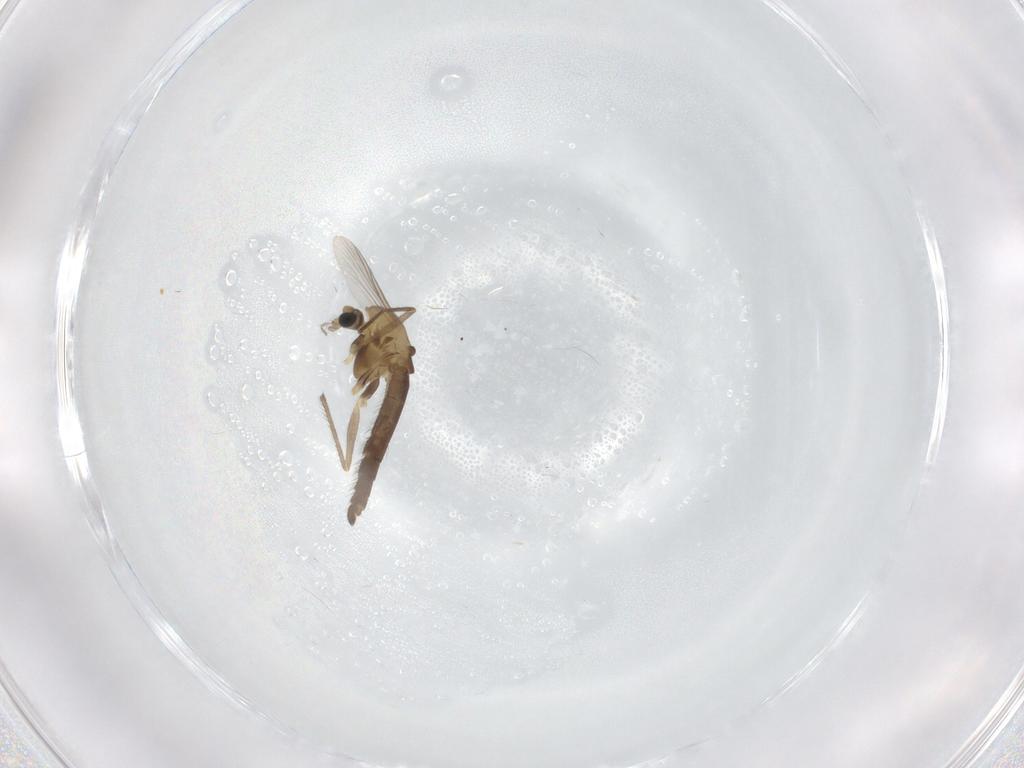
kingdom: Animalia
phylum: Arthropoda
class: Insecta
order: Diptera
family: Chironomidae
